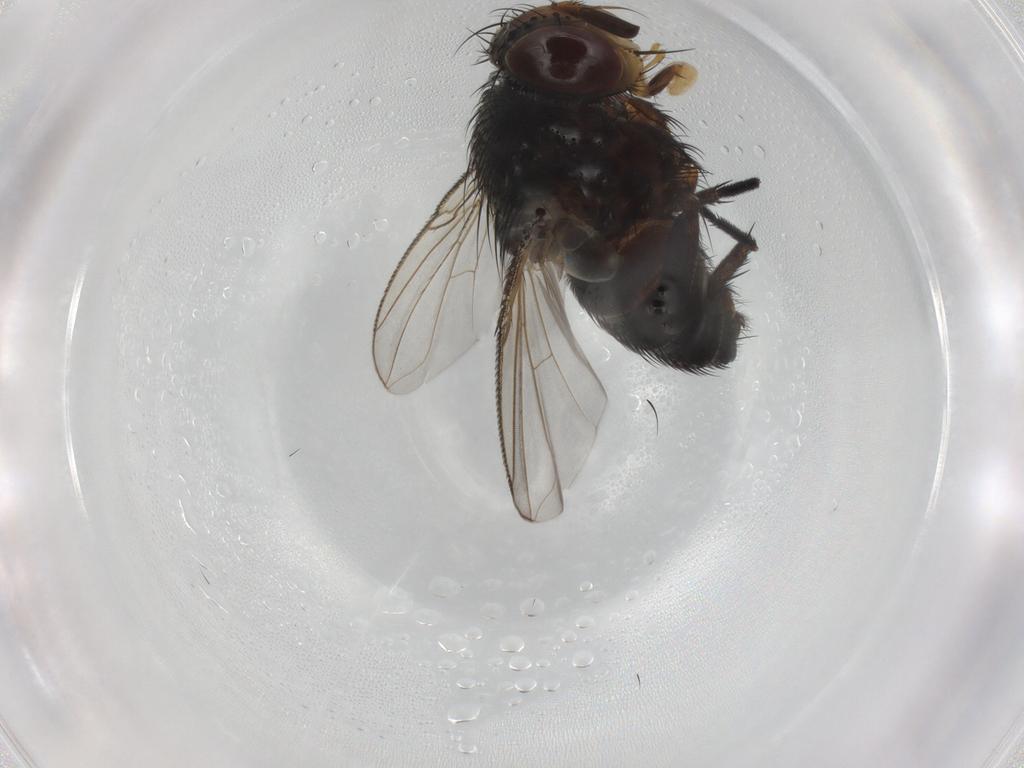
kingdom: Animalia
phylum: Arthropoda
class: Insecta
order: Diptera
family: Tachinidae
